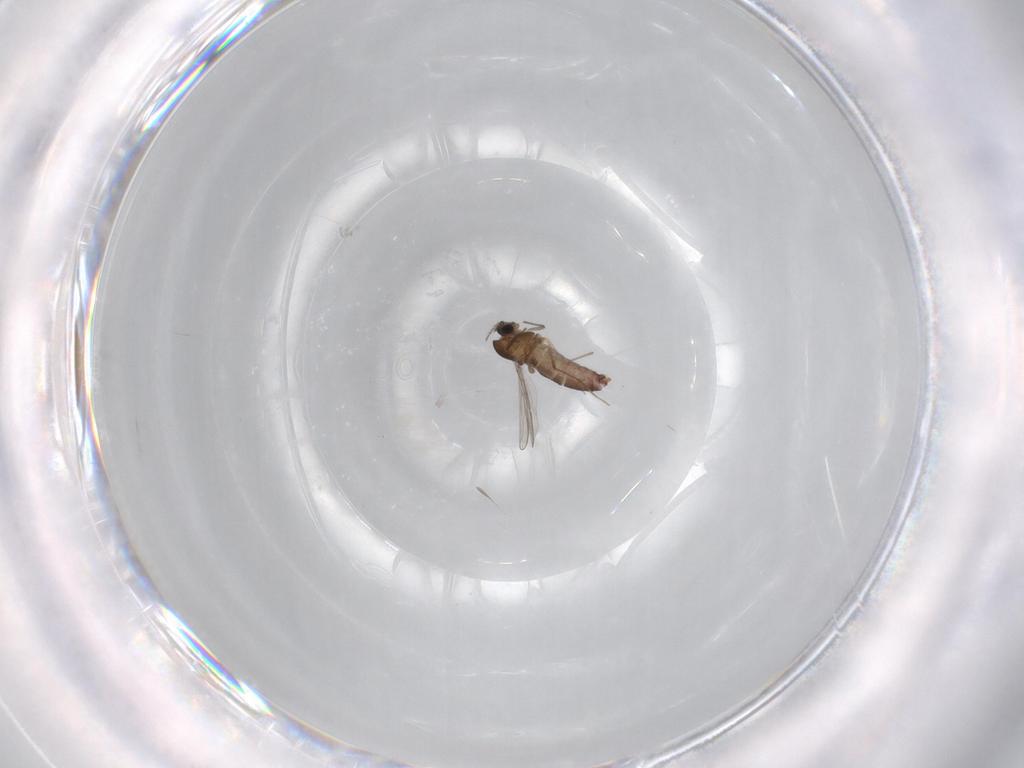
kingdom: Animalia
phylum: Arthropoda
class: Insecta
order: Diptera
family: Chironomidae
